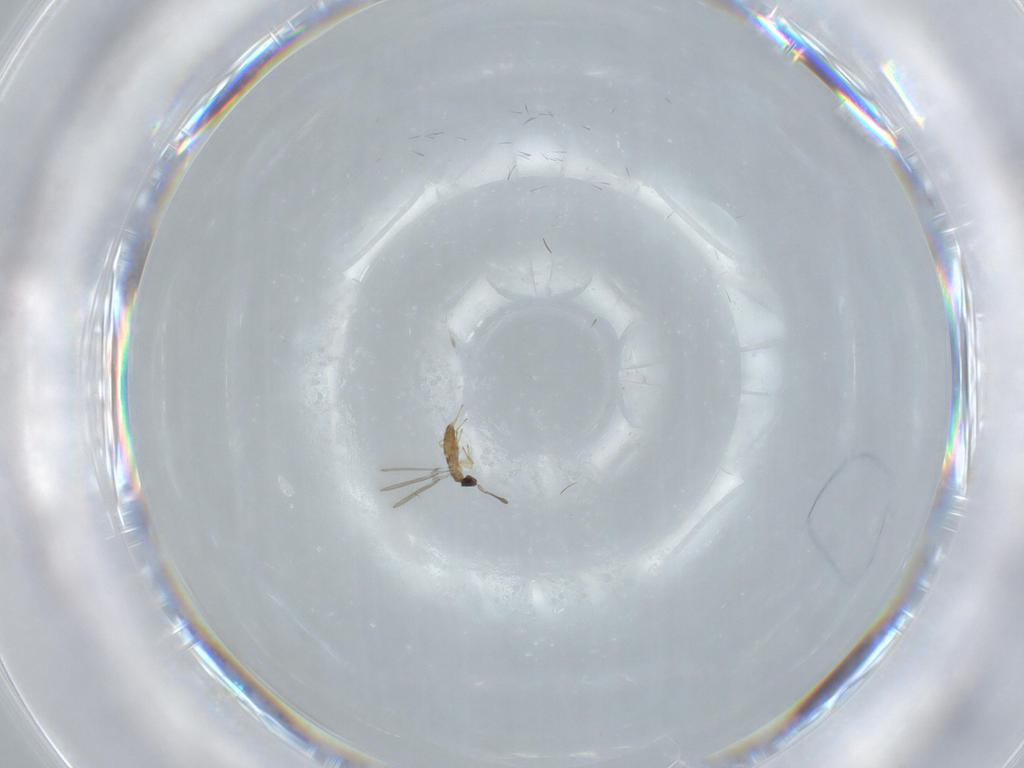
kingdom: Animalia
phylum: Arthropoda
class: Insecta
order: Hymenoptera
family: Mymaridae
